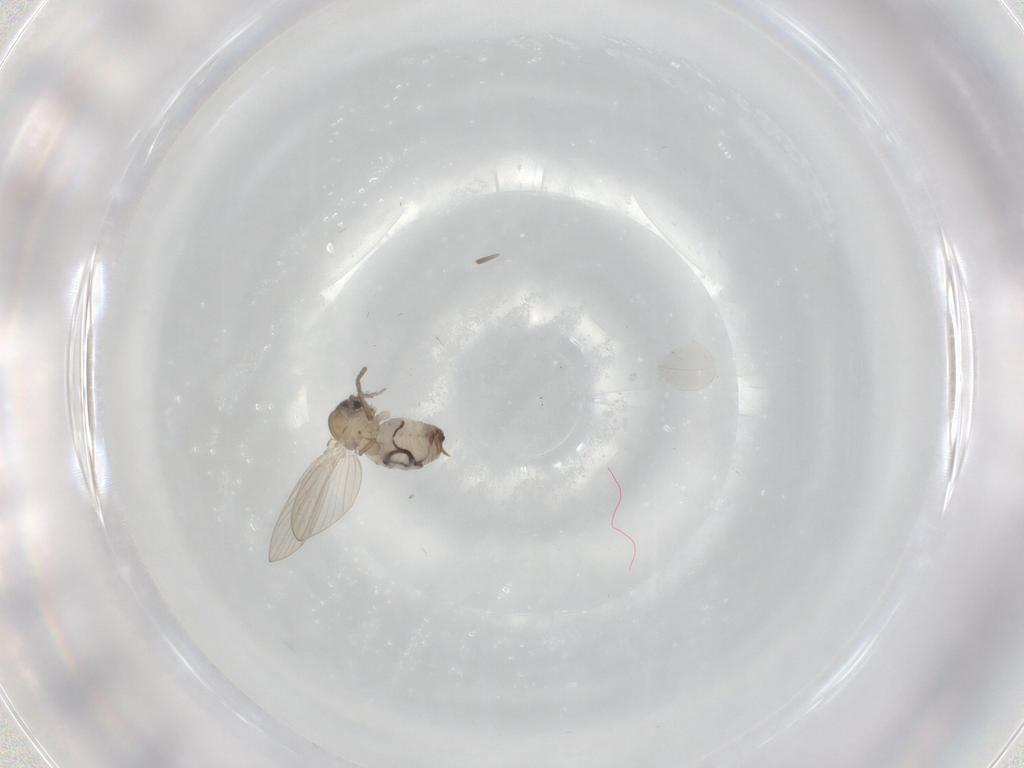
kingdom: Animalia
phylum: Arthropoda
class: Insecta
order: Diptera
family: Psychodidae
